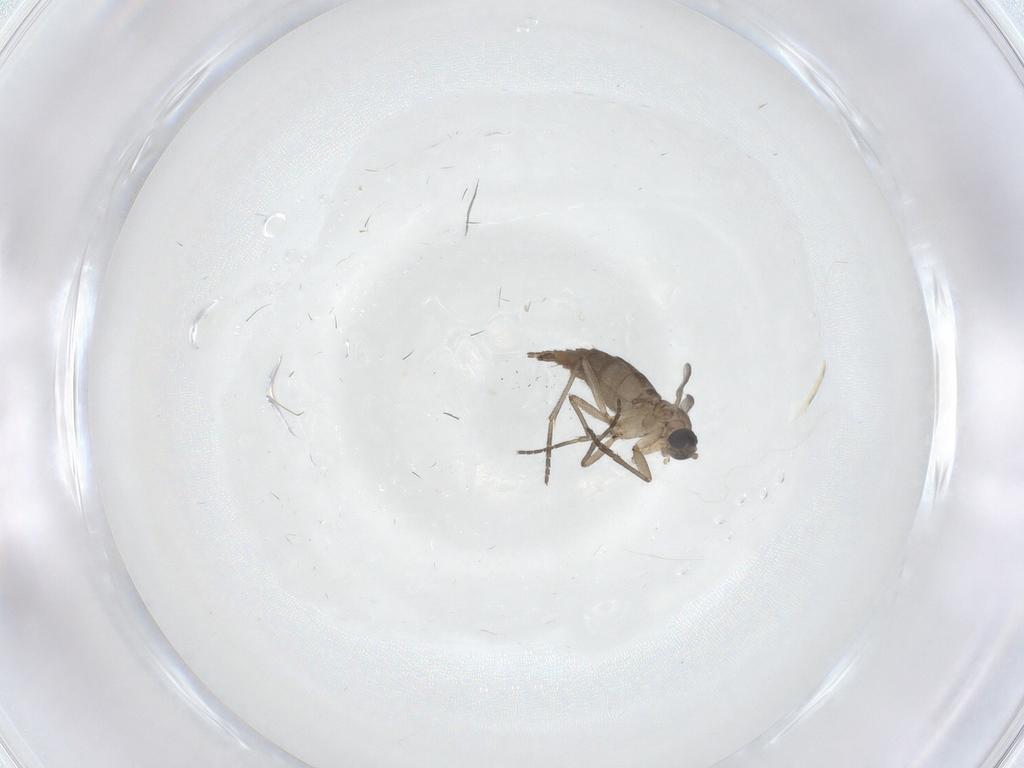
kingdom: Animalia
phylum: Arthropoda
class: Insecta
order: Diptera
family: Sciaridae
